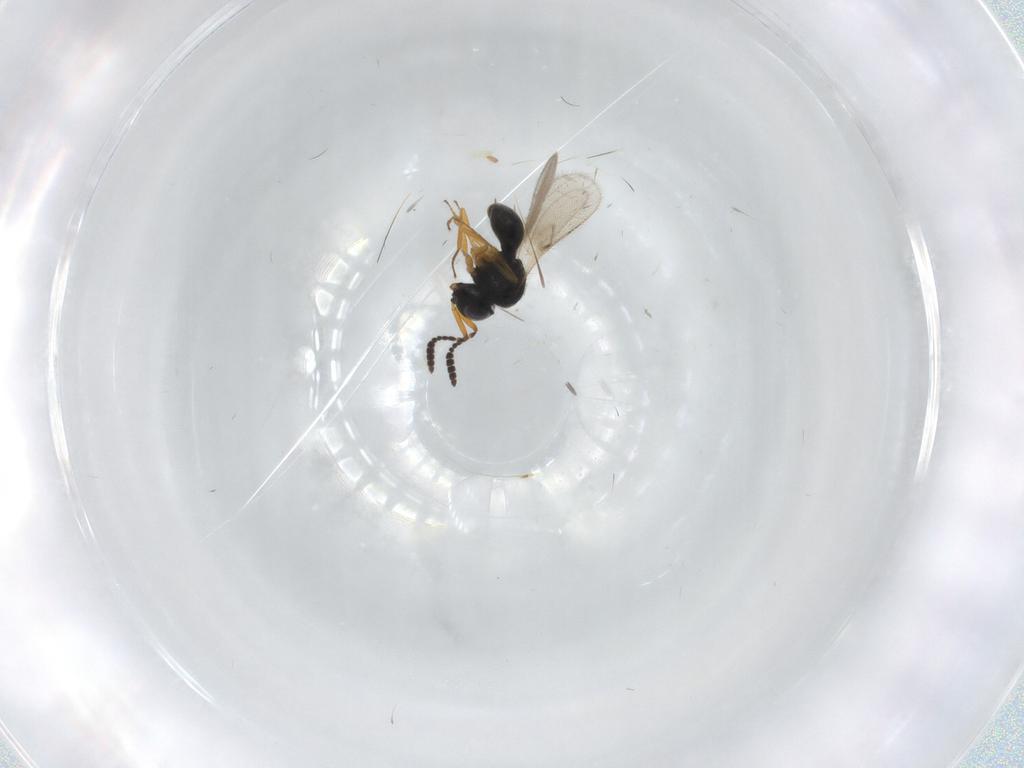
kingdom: Animalia
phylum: Arthropoda
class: Insecta
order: Hymenoptera
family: Scelionidae
